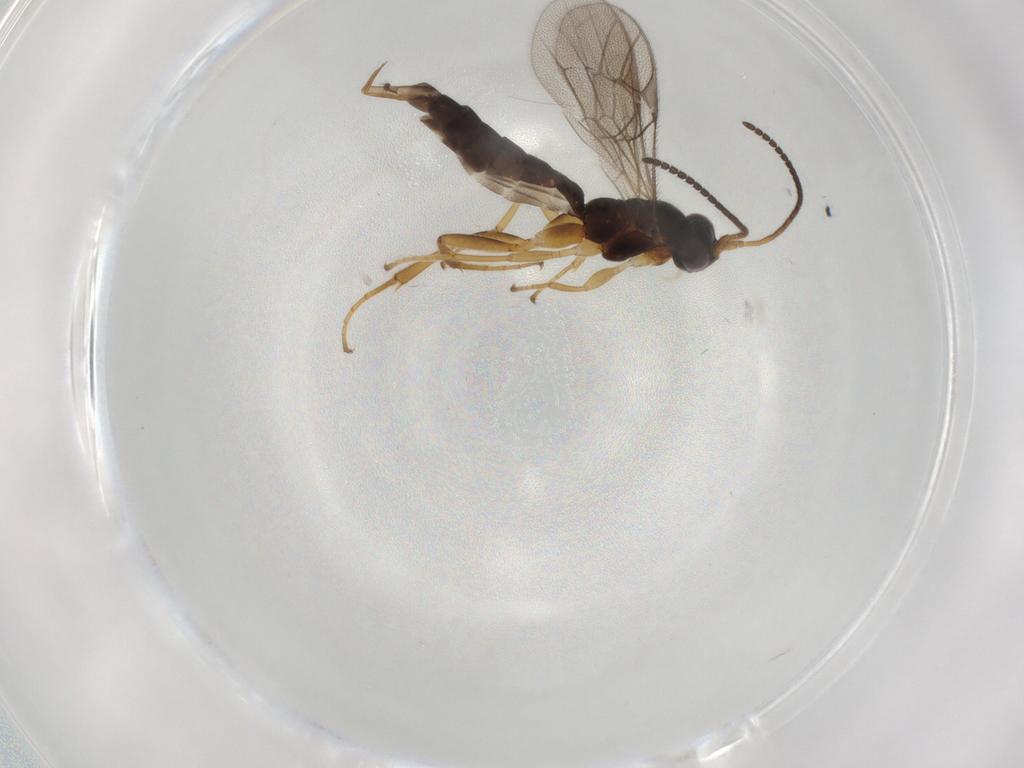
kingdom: Animalia
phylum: Arthropoda
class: Insecta
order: Hymenoptera
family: Ichneumonidae
